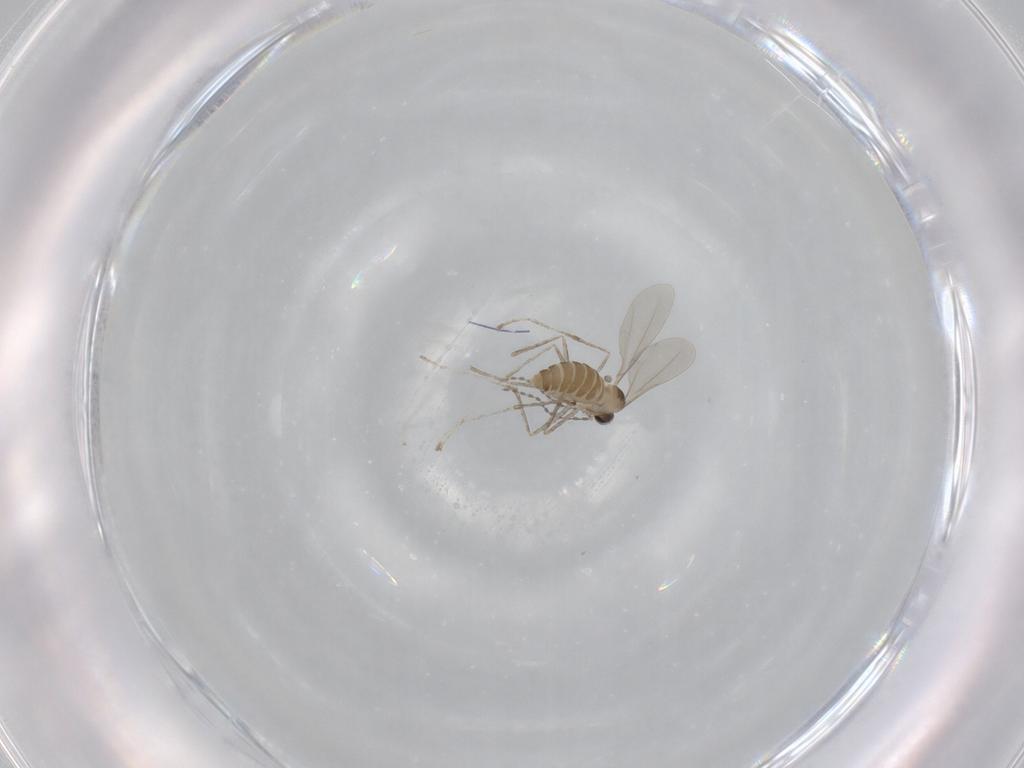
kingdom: Animalia
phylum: Arthropoda
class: Insecta
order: Diptera
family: Cecidomyiidae
